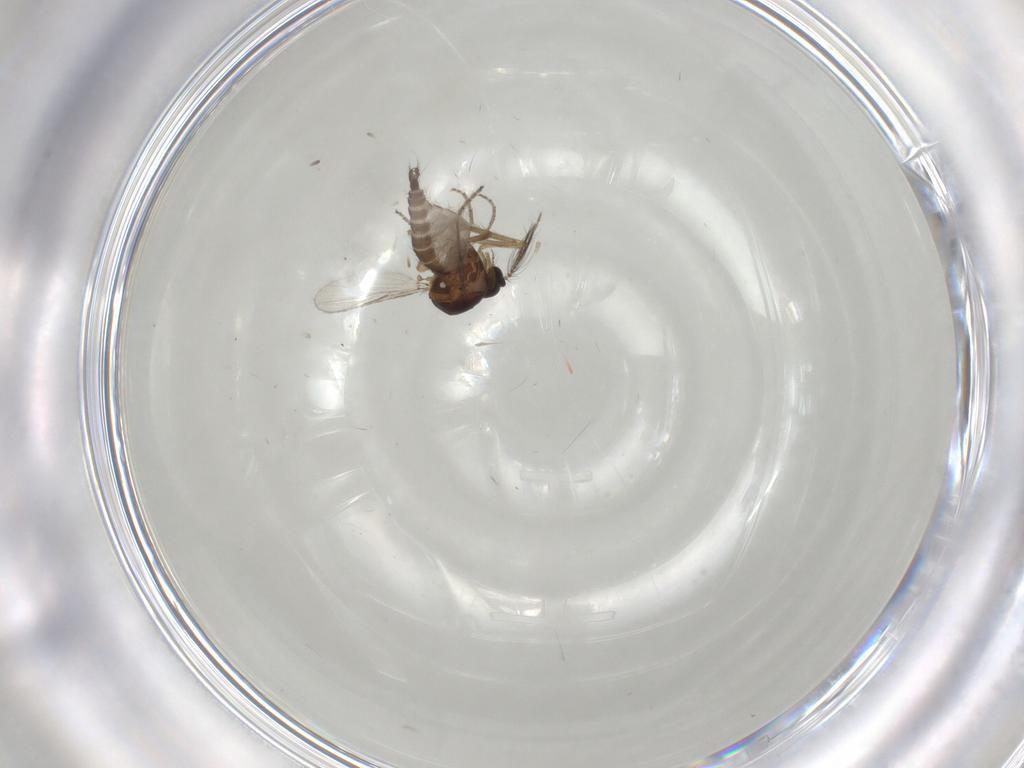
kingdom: Animalia
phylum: Arthropoda
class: Insecta
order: Diptera
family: Ceratopogonidae
